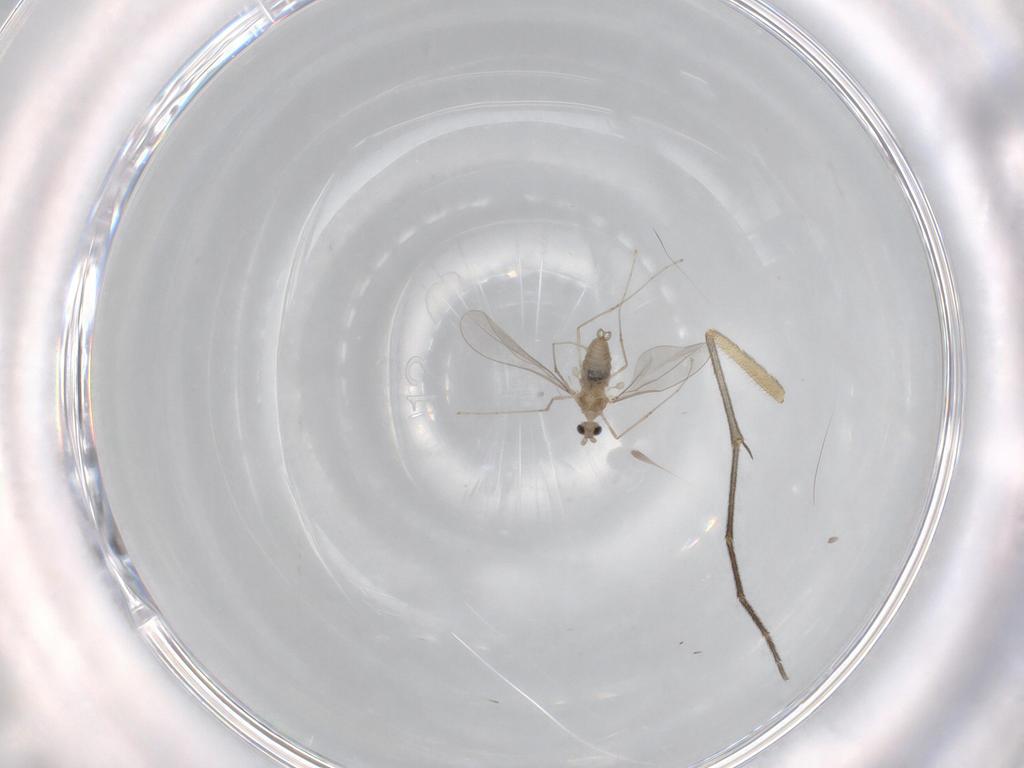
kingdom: Animalia
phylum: Arthropoda
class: Insecta
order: Diptera
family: Cecidomyiidae
